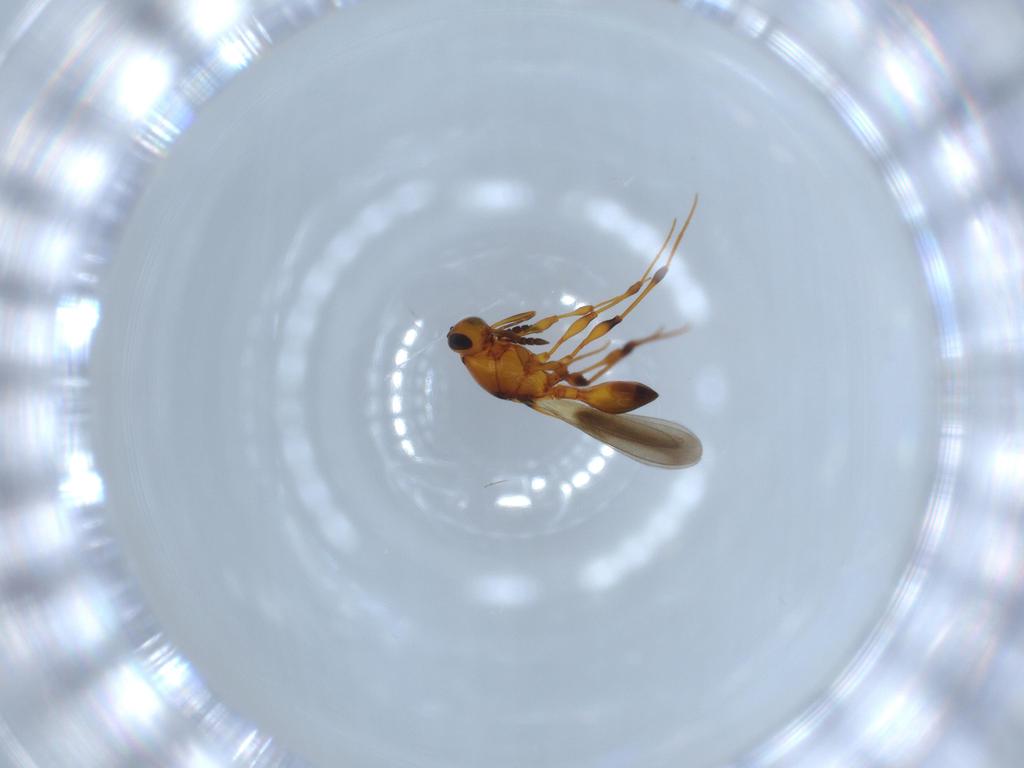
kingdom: Animalia
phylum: Arthropoda
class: Insecta
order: Hymenoptera
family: Platygastridae
